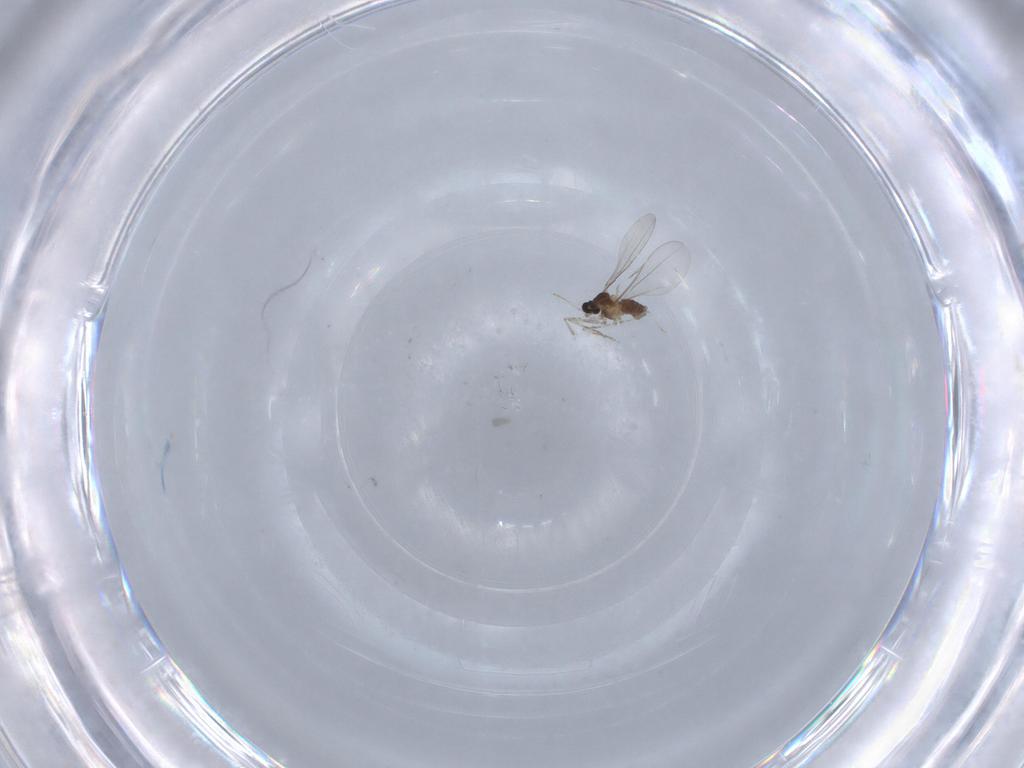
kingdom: Animalia
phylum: Arthropoda
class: Insecta
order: Diptera
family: Cecidomyiidae
